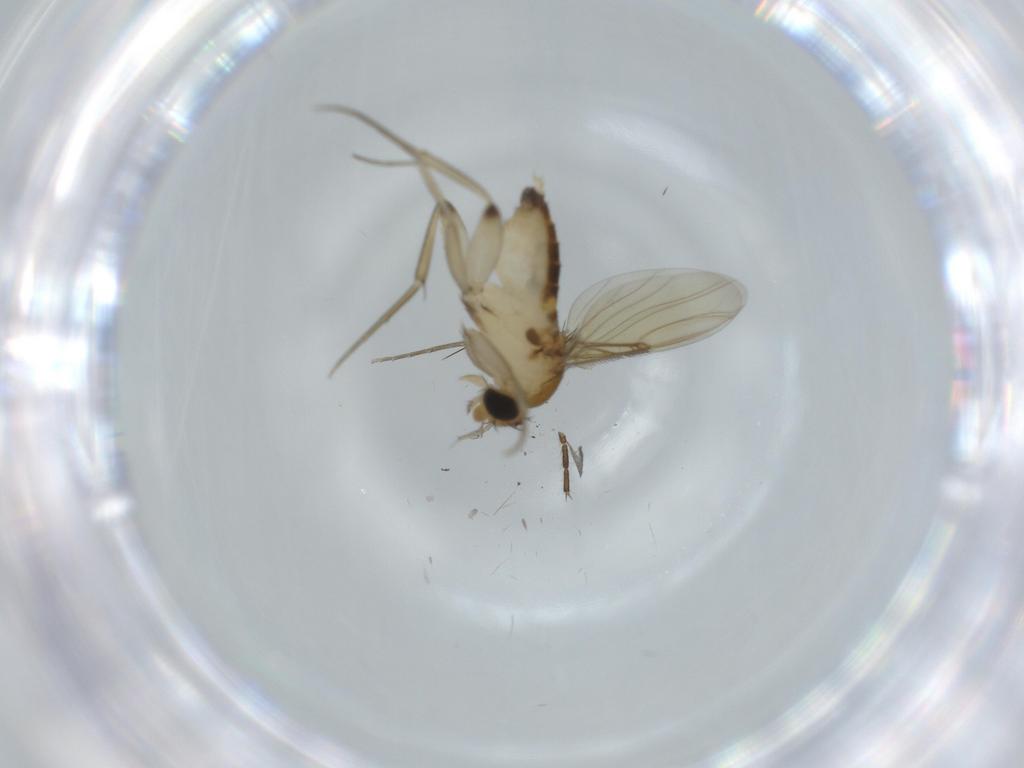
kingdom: Animalia
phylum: Arthropoda
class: Insecta
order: Diptera
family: Phoridae
